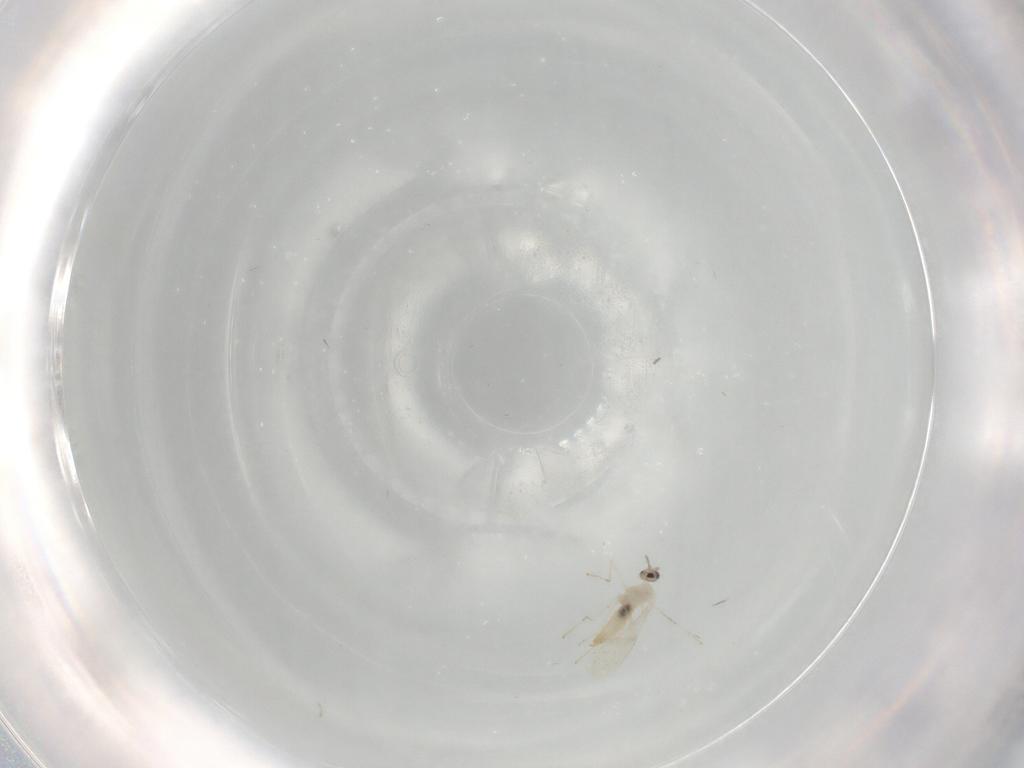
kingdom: Animalia
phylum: Arthropoda
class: Insecta
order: Diptera
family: Cecidomyiidae
